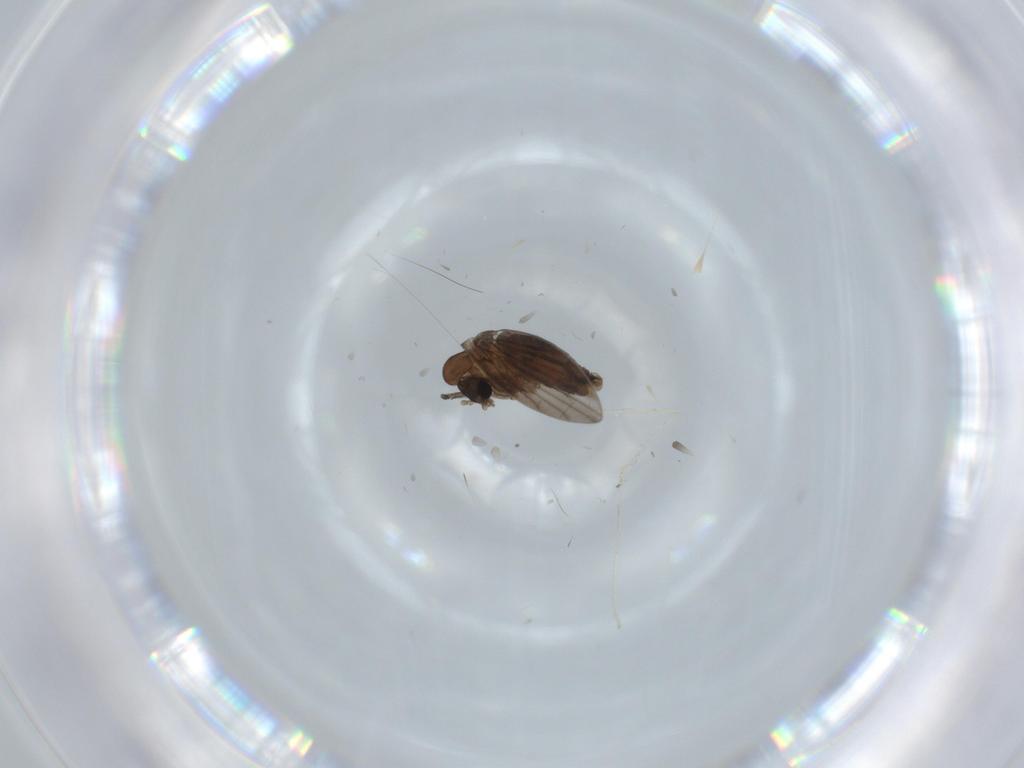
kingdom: Animalia
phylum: Arthropoda
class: Insecta
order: Diptera
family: Psychodidae
